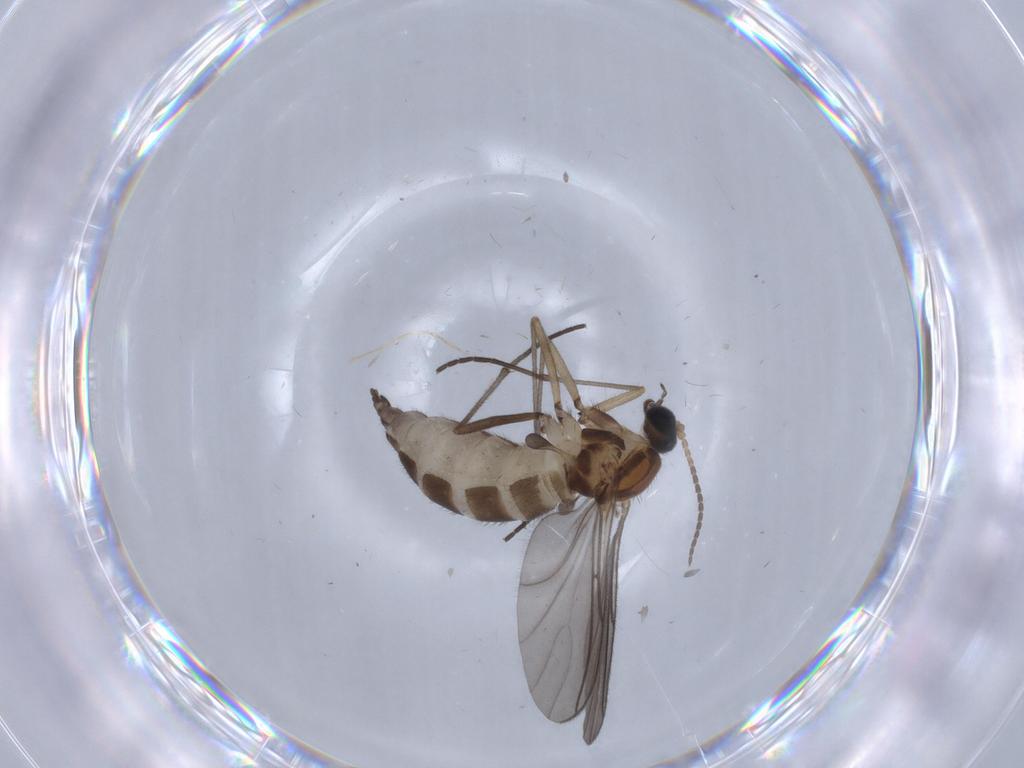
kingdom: Animalia
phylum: Arthropoda
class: Insecta
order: Diptera
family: Sciaridae
